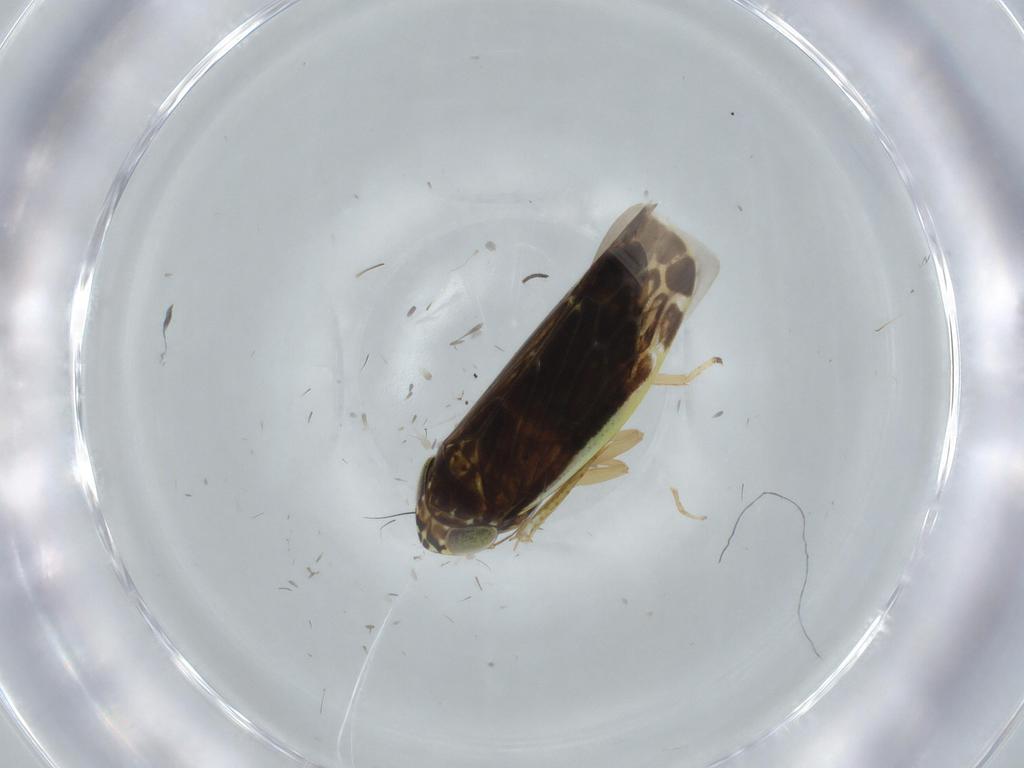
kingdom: Animalia
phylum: Arthropoda
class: Insecta
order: Hemiptera
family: Cicadellidae
